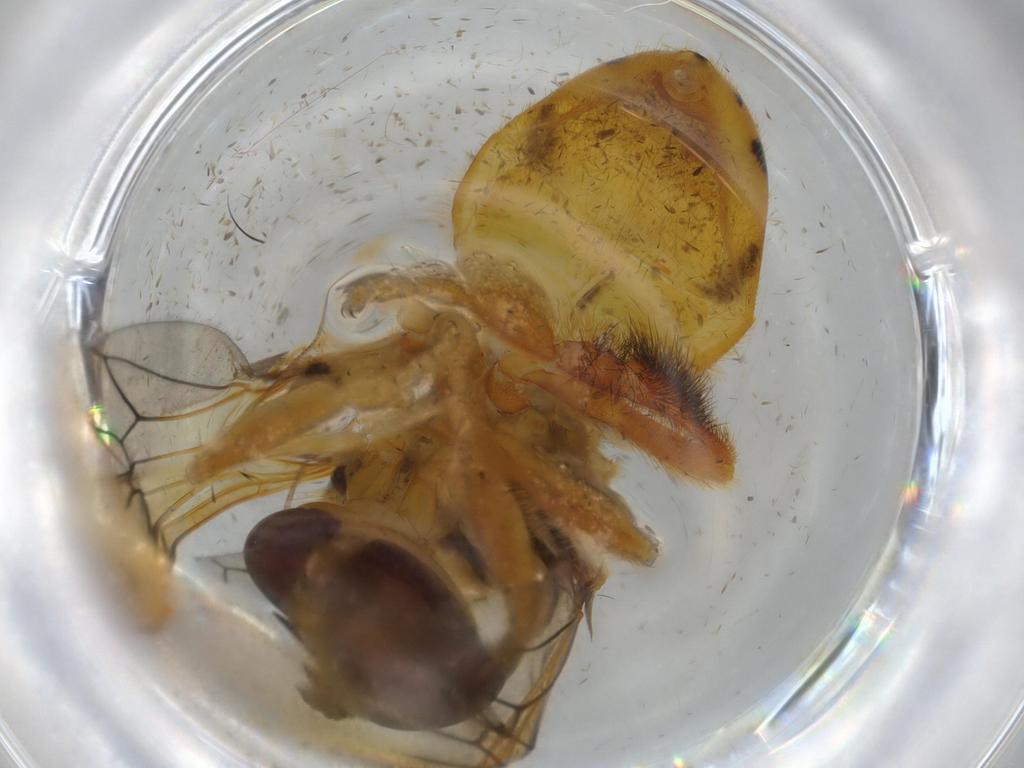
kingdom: Animalia
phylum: Arthropoda
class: Insecta
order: Diptera
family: Syrphidae
